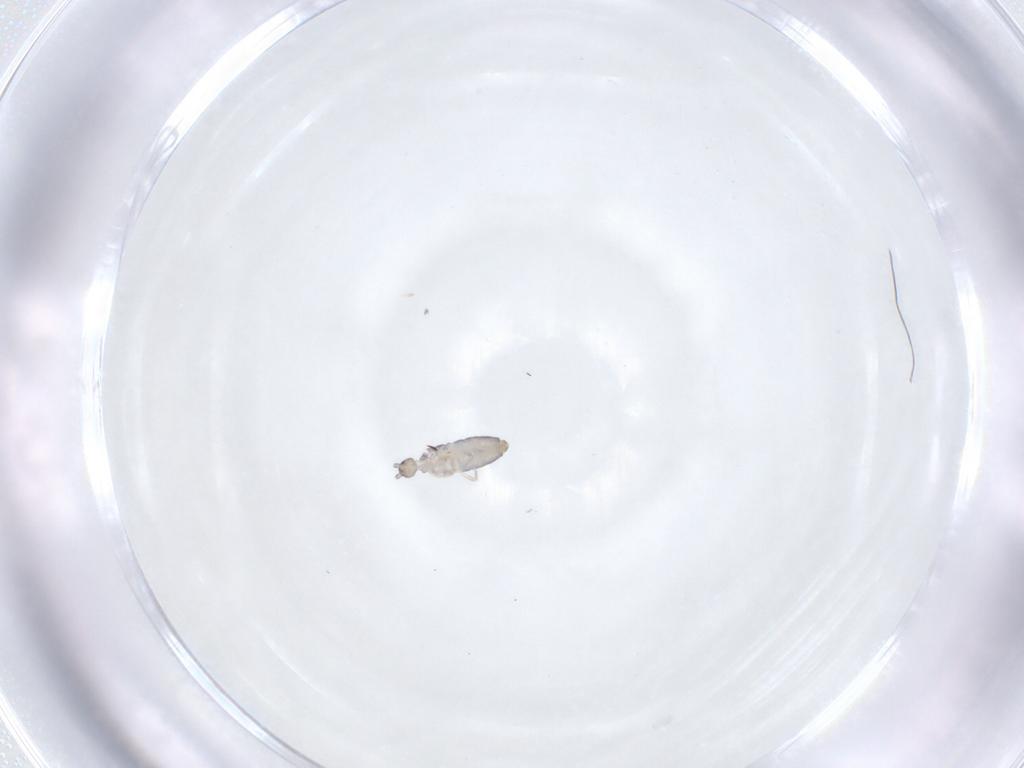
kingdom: Animalia
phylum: Arthropoda
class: Collembola
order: Entomobryomorpha
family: Entomobryidae
